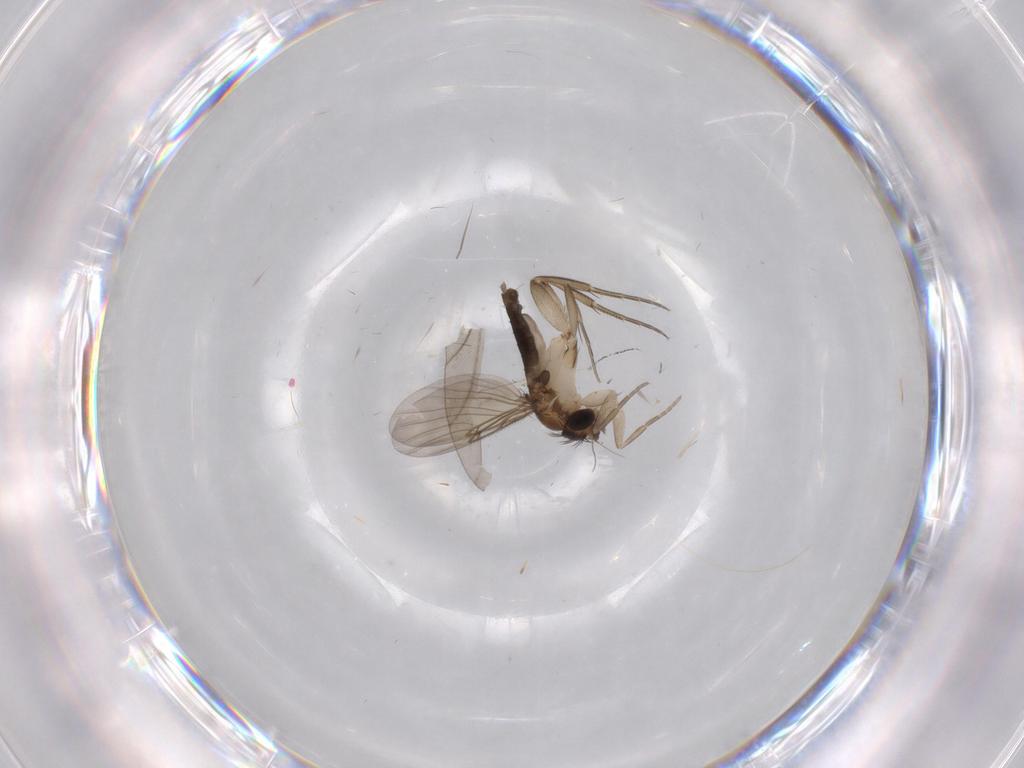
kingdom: Animalia
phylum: Arthropoda
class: Insecta
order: Diptera
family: Phoridae
